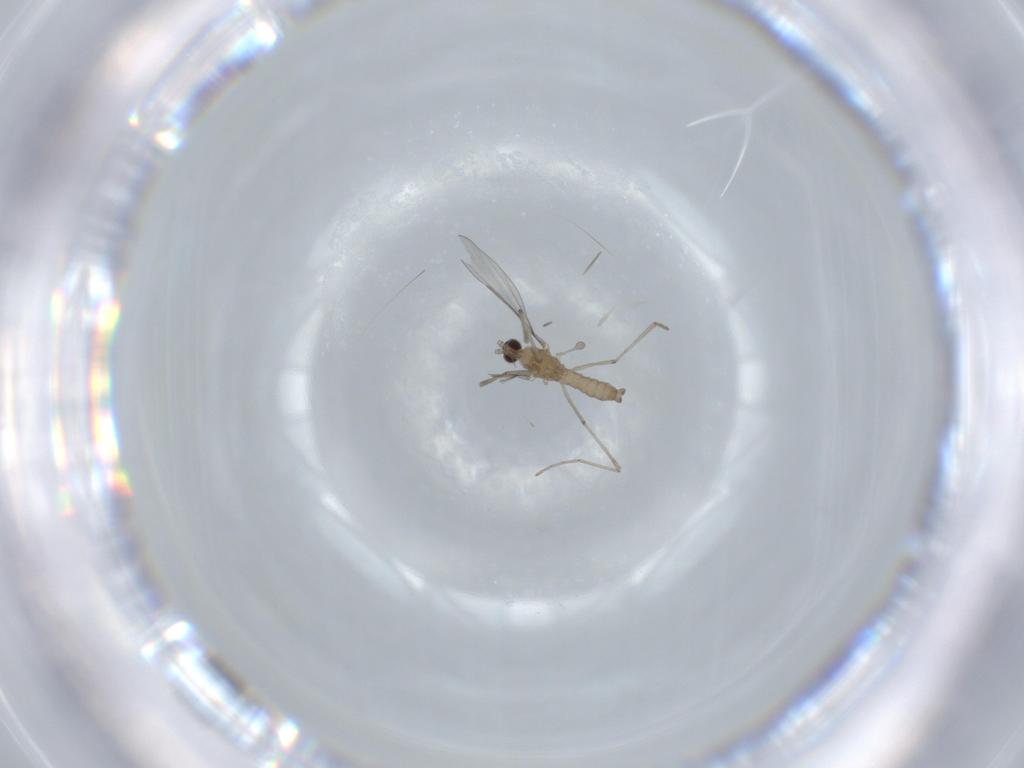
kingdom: Animalia
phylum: Arthropoda
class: Insecta
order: Diptera
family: Cecidomyiidae
